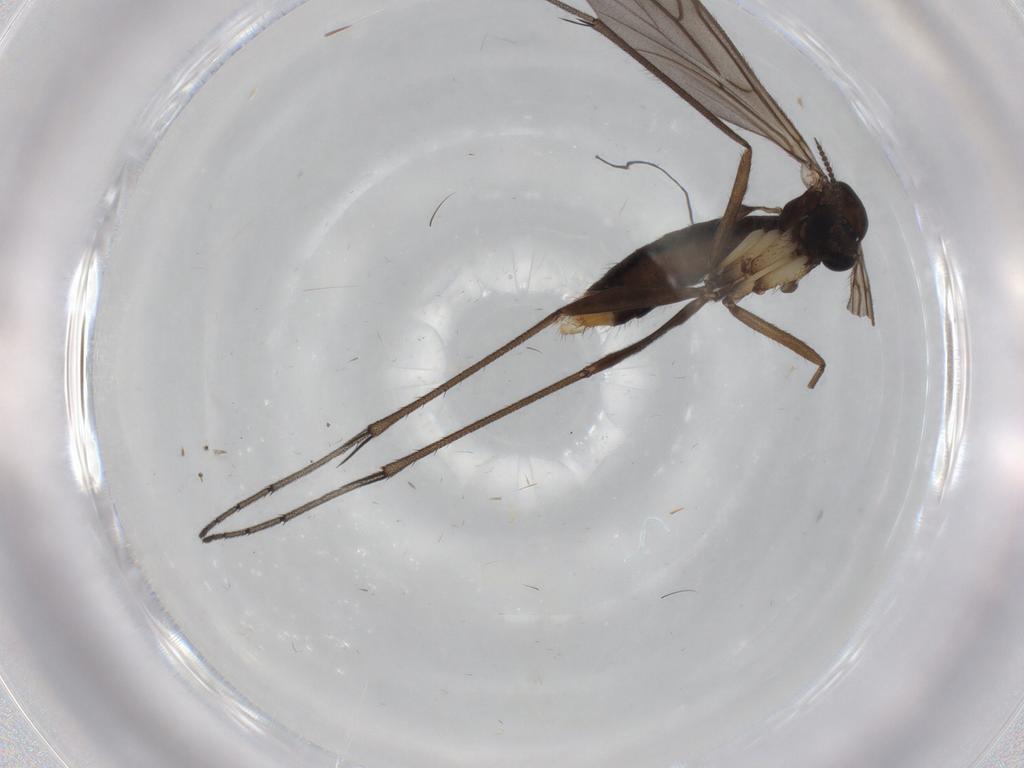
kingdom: Animalia
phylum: Arthropoda
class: Insecta
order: Diptera
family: Ditomyiidae
